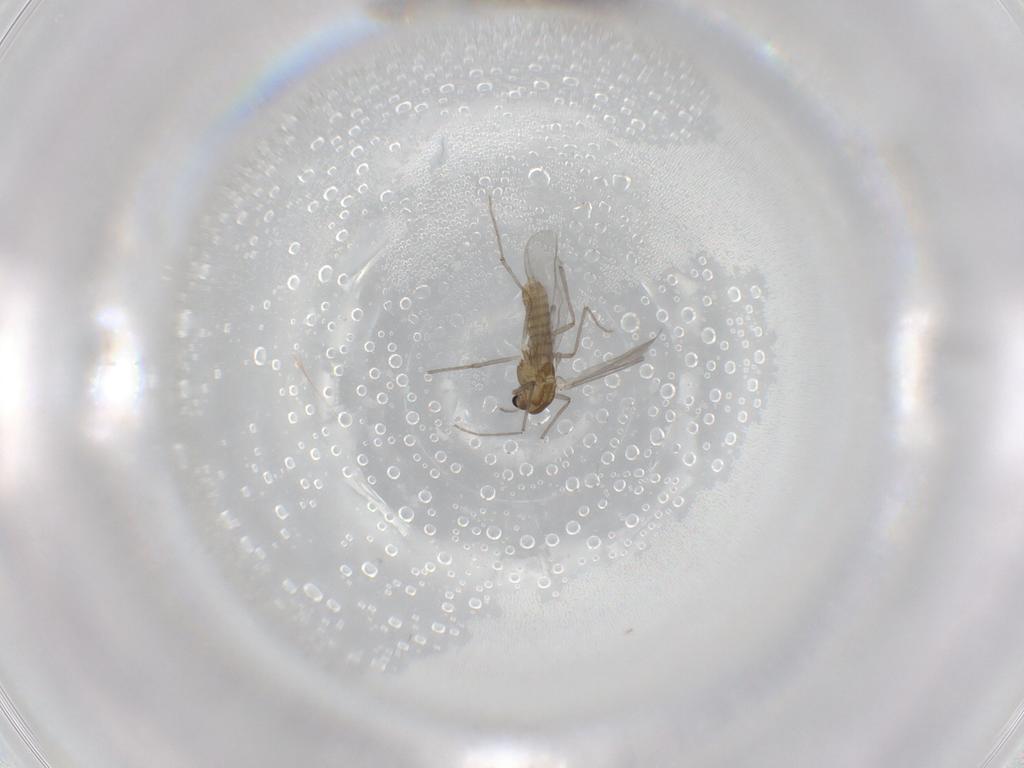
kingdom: Animalia
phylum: Arthropoda
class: Insecta
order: Diptera
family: Chironomidae
